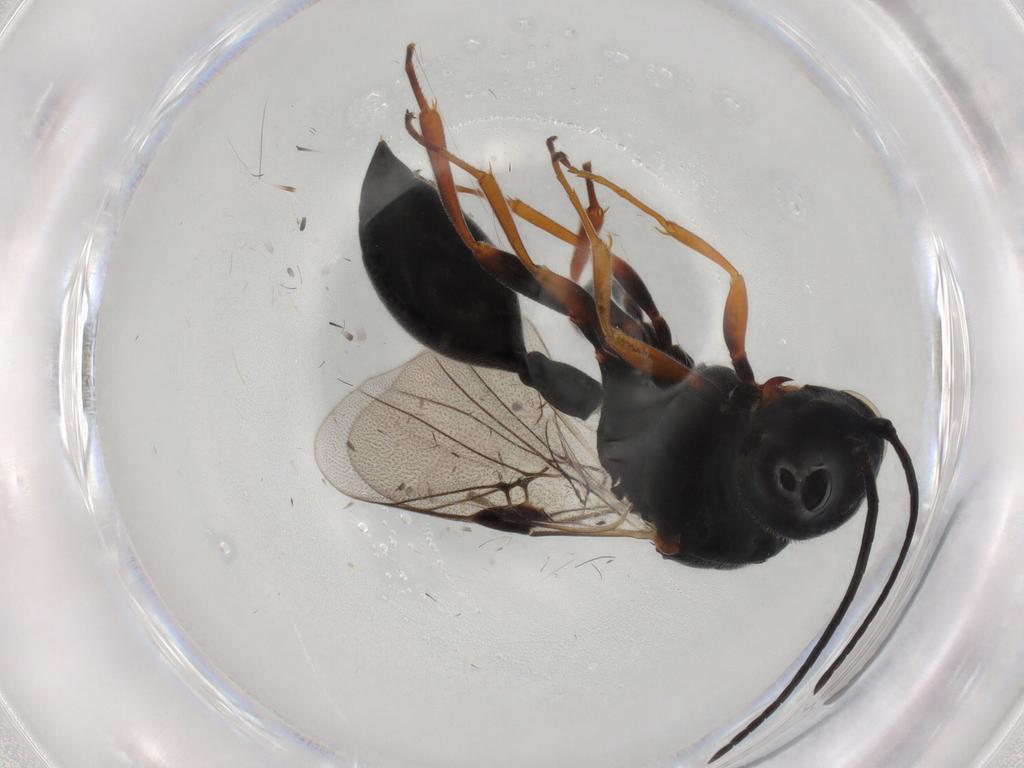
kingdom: Animalia
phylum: Arthropoda
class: Insecta
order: Hymenoptera
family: Heloridae
